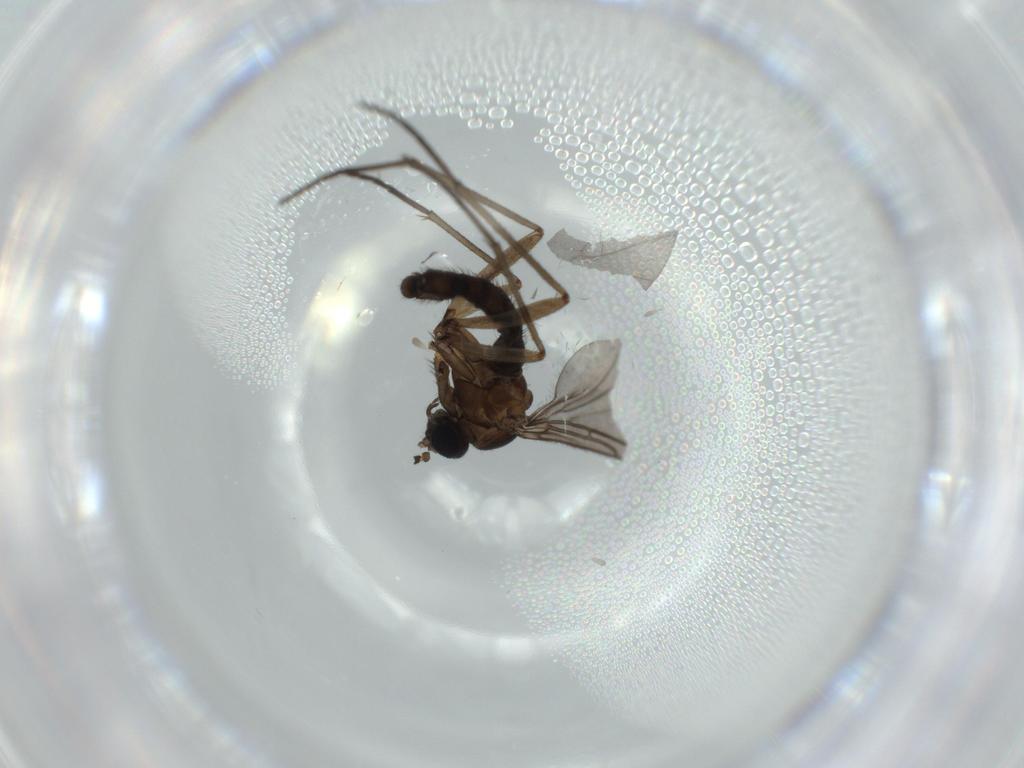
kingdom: Animalia
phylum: Arthropoda
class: Insecta
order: Diptera
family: Sciaridae
